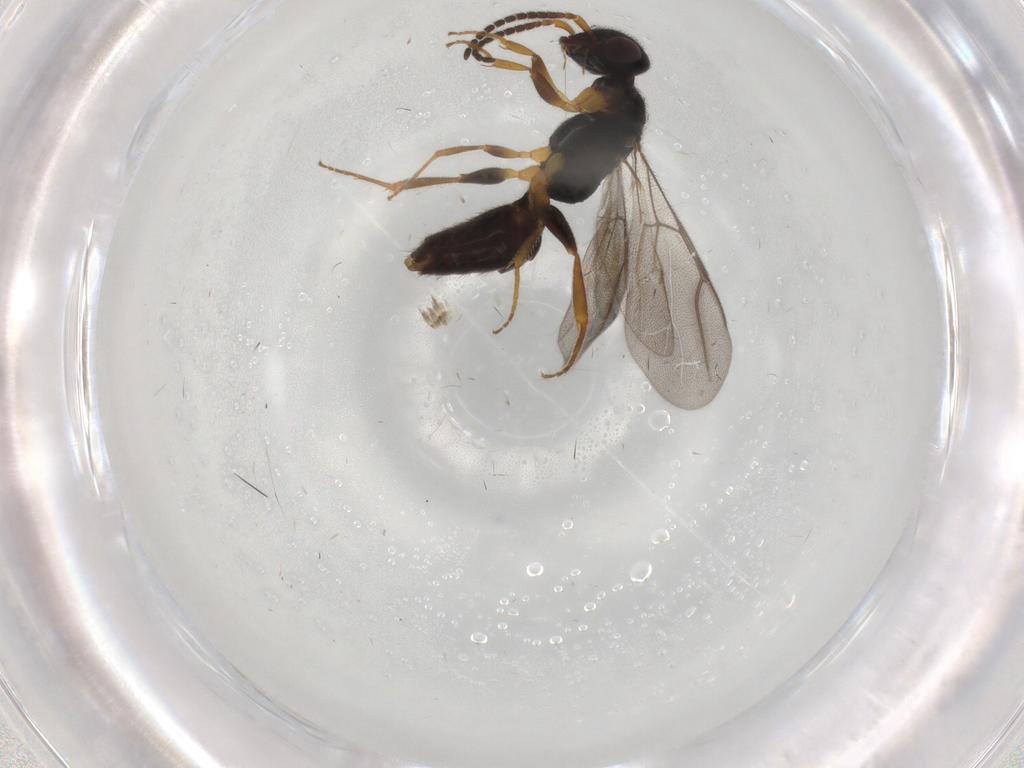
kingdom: Animalia
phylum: Arthropoda
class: Insecta
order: Hymenoptera
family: Bethylidae
